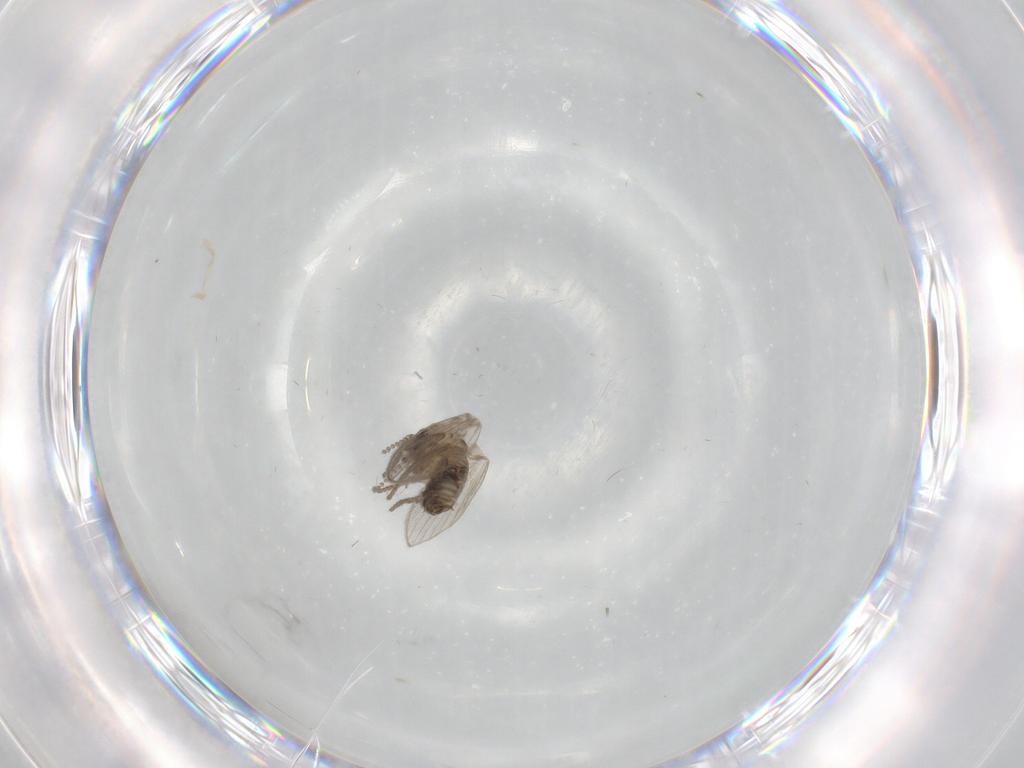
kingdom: Animalia
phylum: Arthropoda
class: Insecta
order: Diptera
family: Psychodidae
